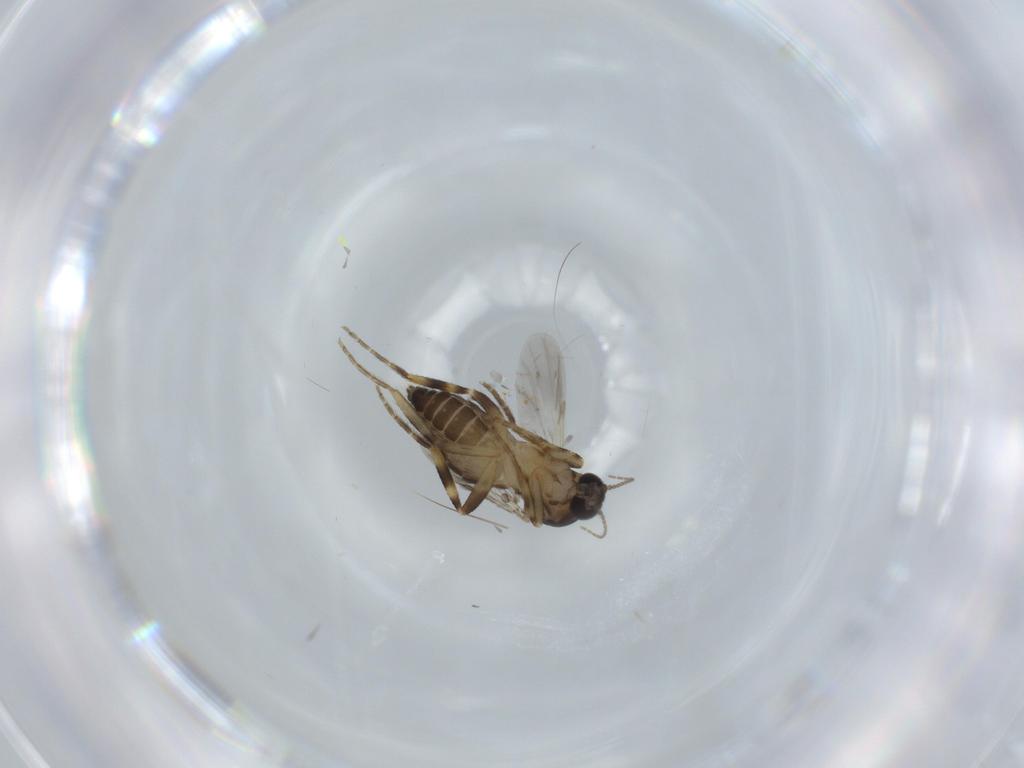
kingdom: Animalia
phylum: Arthropoda
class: Insecta
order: Diptera
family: Ceratopogonidae
